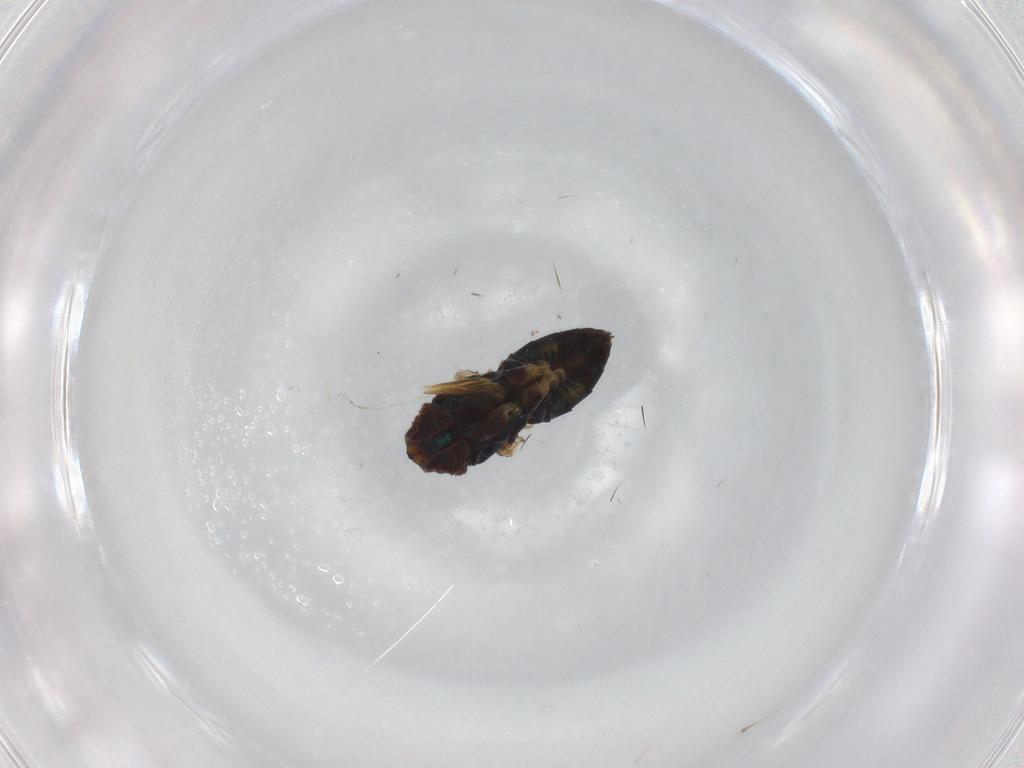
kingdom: Animalia
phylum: Arthropoda
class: Insecta
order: Diptera
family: Dolichopodidae
